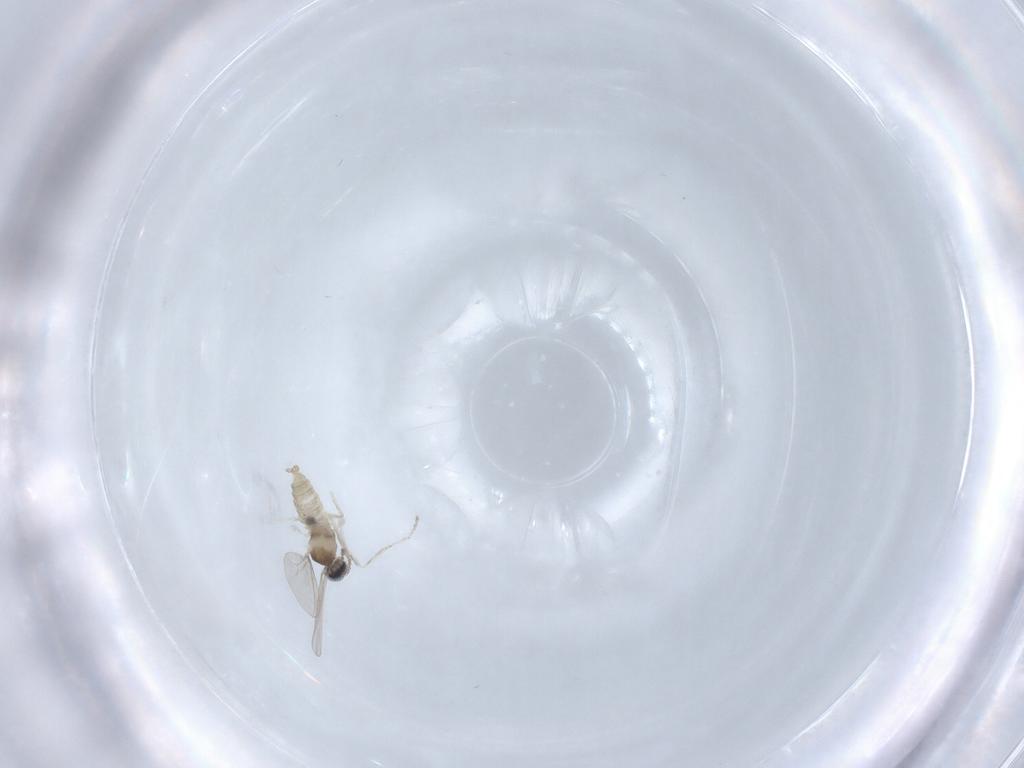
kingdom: Animalia
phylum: Arthropoda
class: Insecta
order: Diptera
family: Cecidomyiidae
